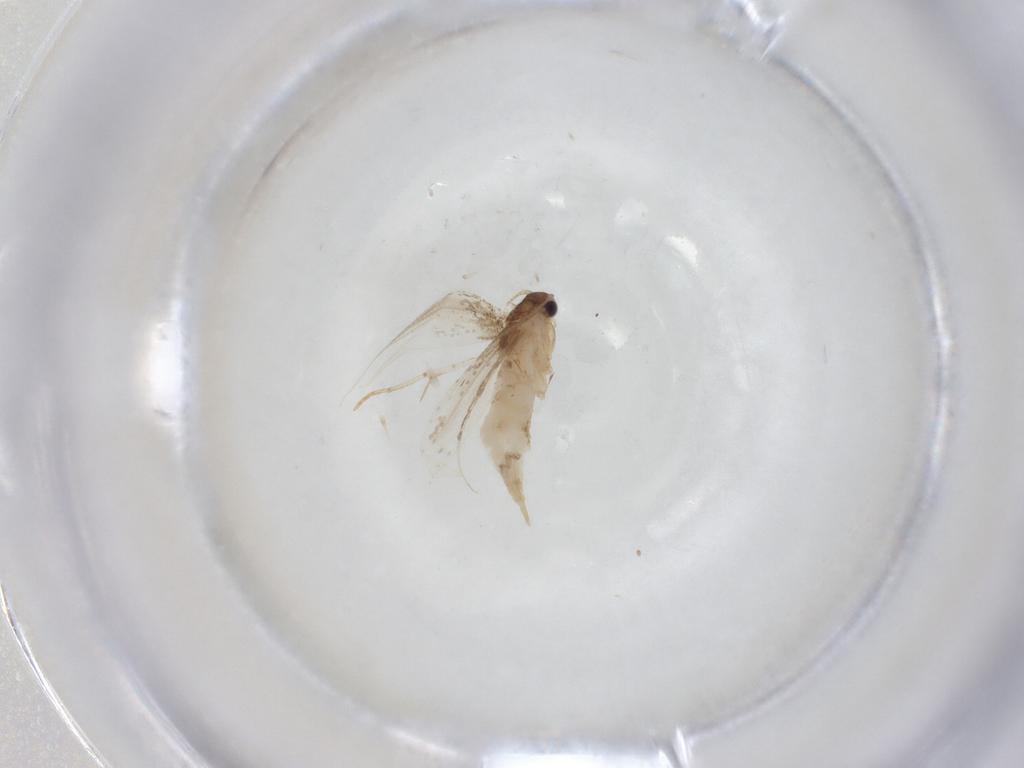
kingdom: Animalia
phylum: Arthropoda
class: Insecta
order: Lepidoptera
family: Tineidae
